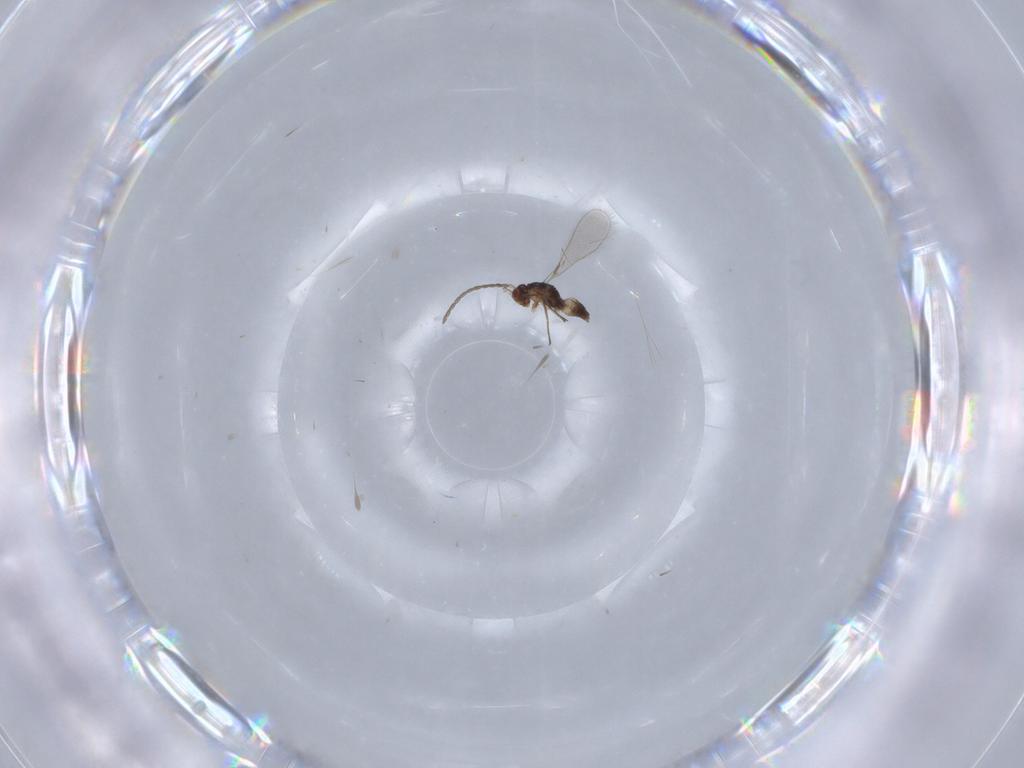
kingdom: Animalia
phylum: Arthropoda
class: Insecta
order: Hymenoptera
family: Mymaridae
